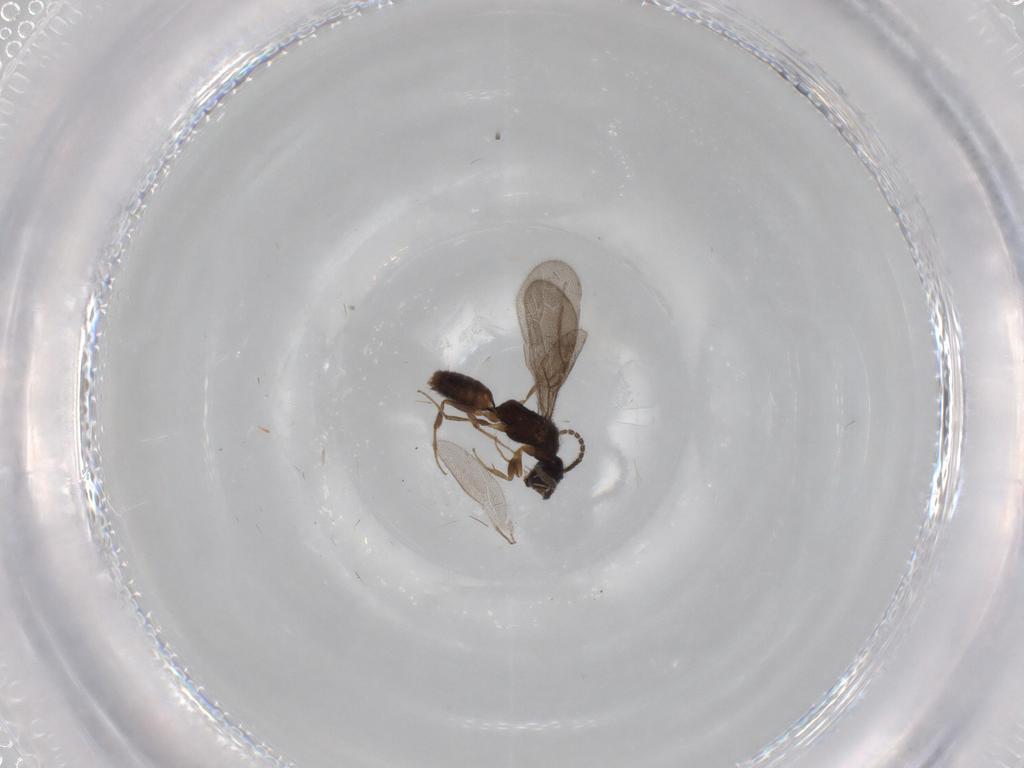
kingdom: Animalia
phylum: Arthropoda
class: Insecta
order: Hymenoptera
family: Bethylidae
